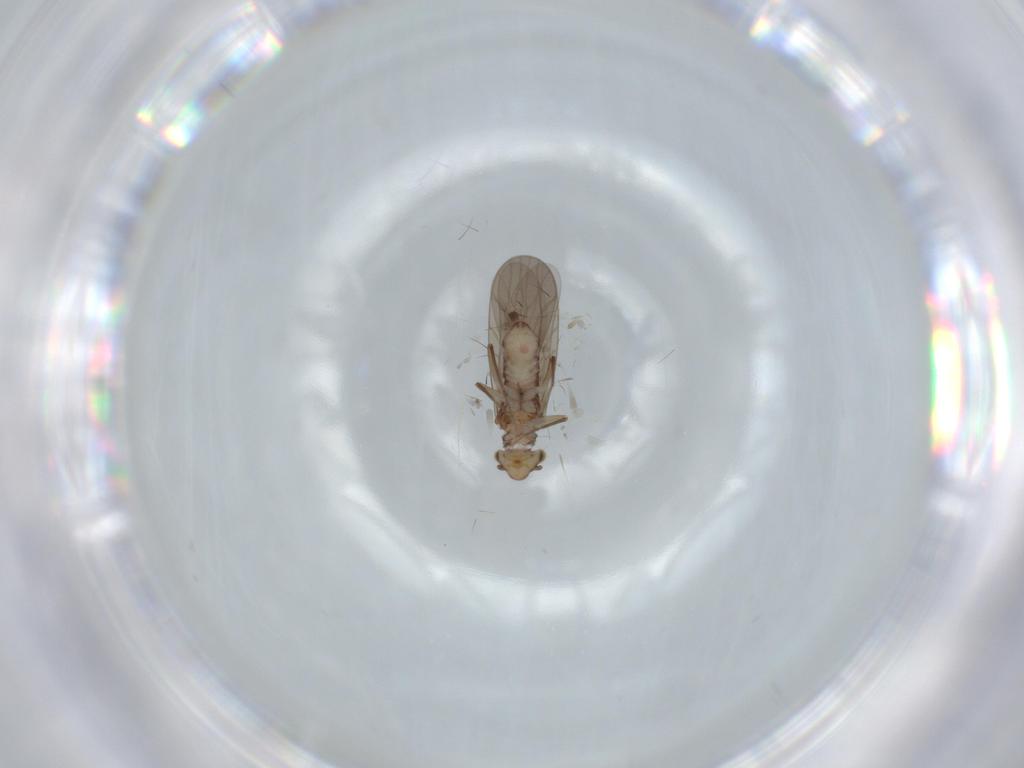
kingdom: Animalia
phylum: Arthropoda
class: Insecta
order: Psocodea
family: Lepidopsocidae
